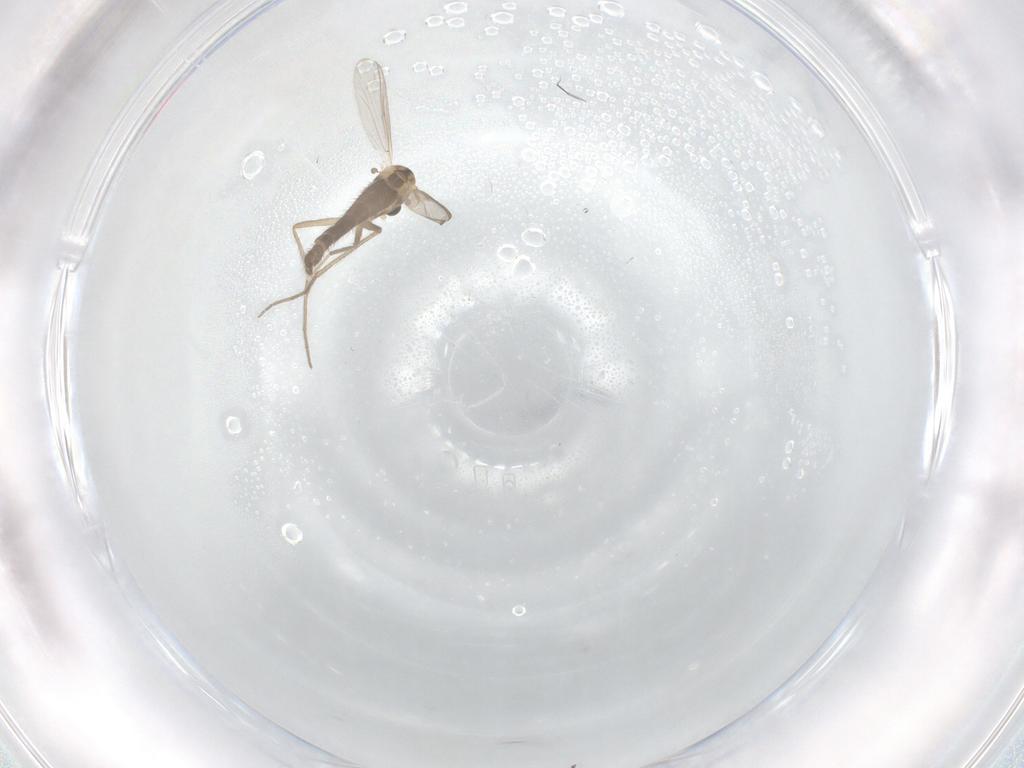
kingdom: Animalia
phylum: Arthropoda
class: Insecta
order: Diptera
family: Chironomidae
